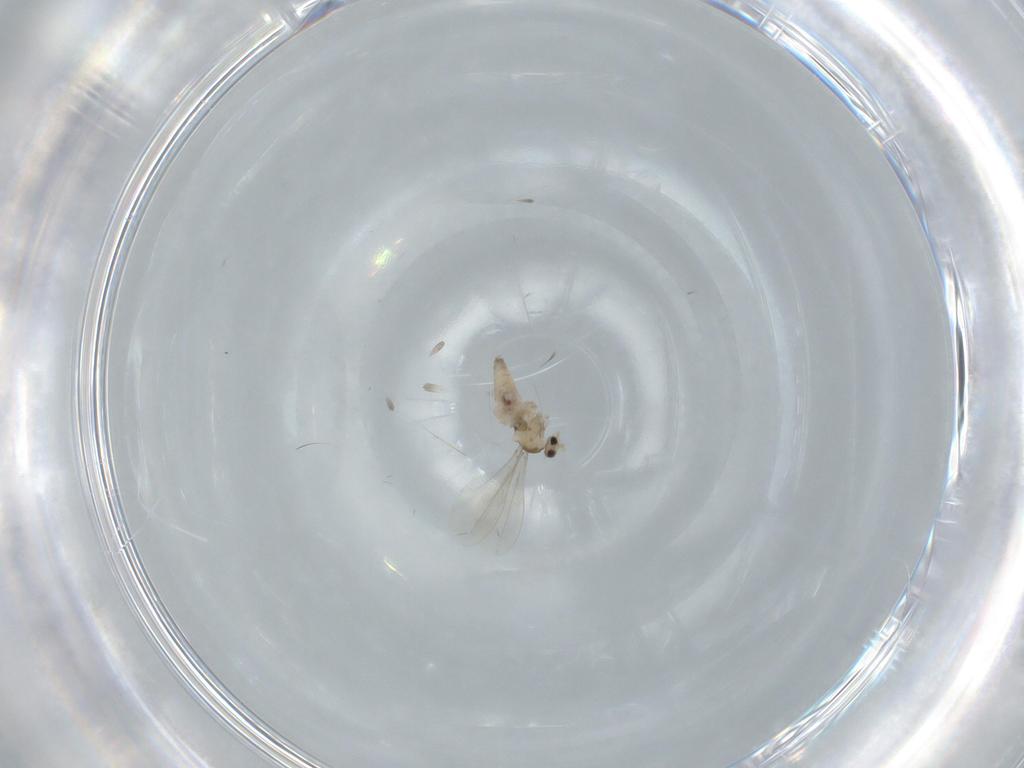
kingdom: Animalia
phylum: Arthropoda
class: Insecta
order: Diptera
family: Cecidomyiidae
